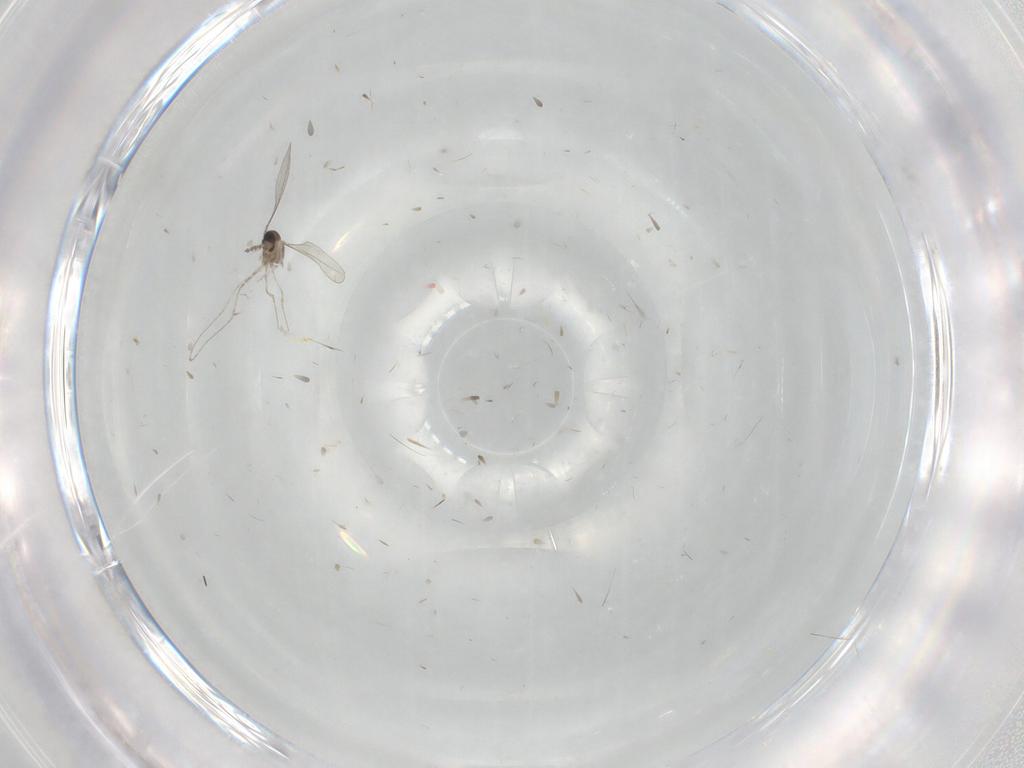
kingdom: Animalia
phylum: Arthropoda
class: Insecta
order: Diptera
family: Cecidomyiidae
